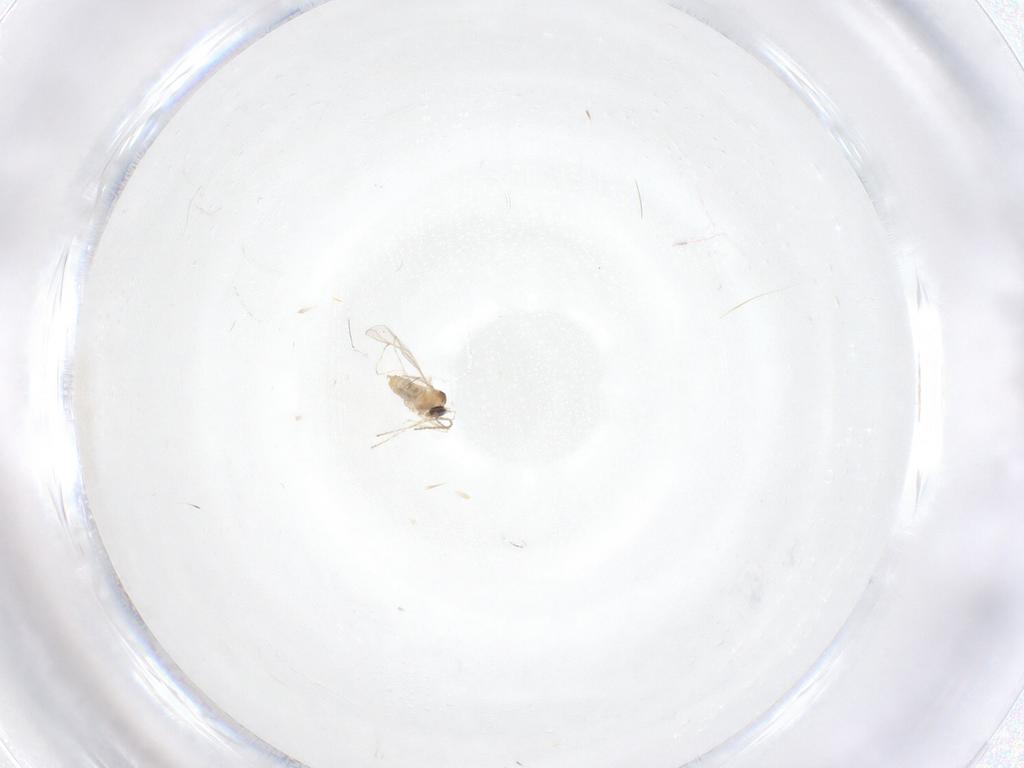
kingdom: Animalia
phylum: Arthropoda
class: Insecta
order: Diptera
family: Cecidomyiidae
